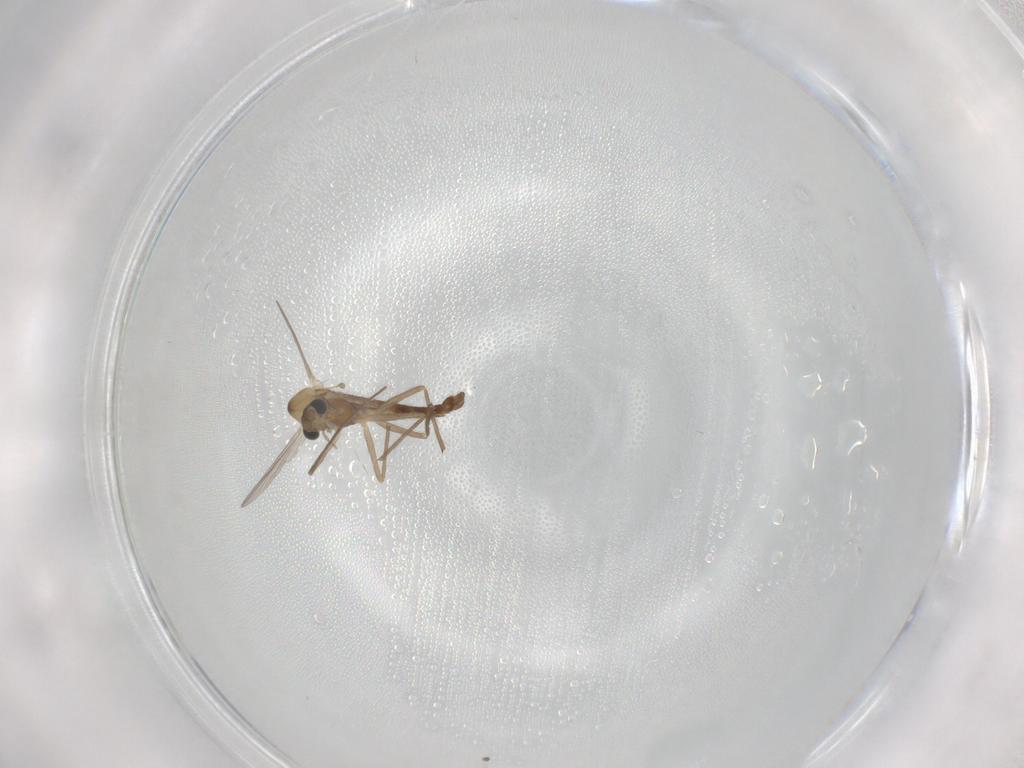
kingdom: Animalia
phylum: Arthropoda
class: Insecta
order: Diptera
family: Chironomidae
